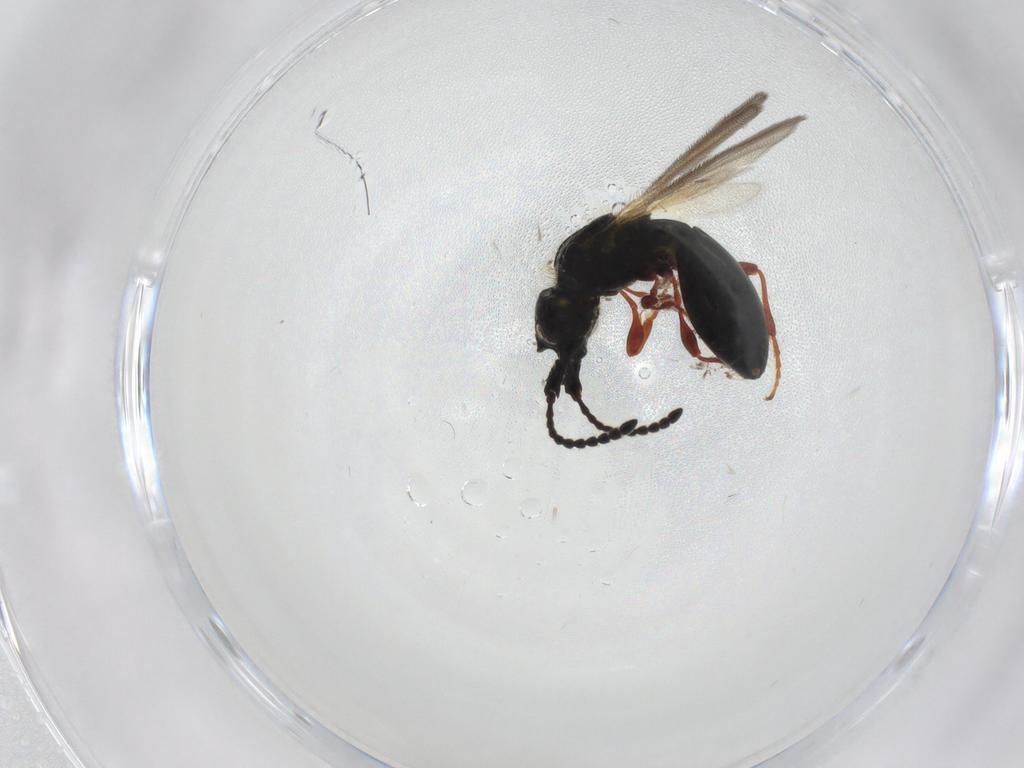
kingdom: Animalia
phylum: Arthropoda
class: Insecta
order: Hymenoptera
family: Diapriidae
